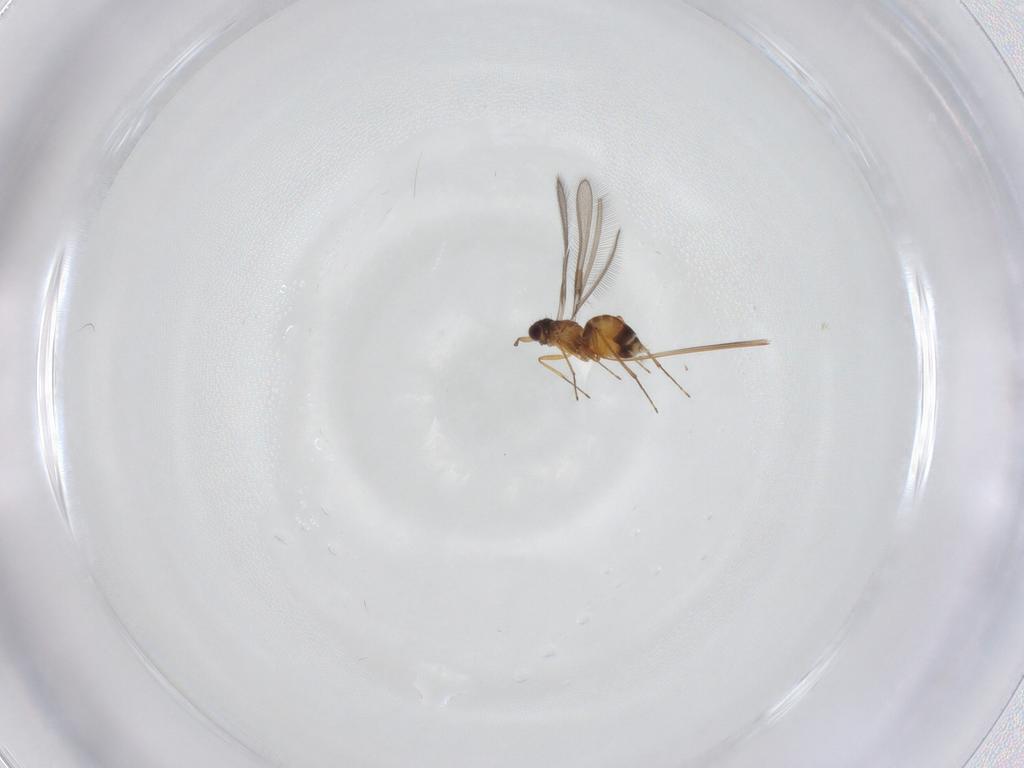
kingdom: Animalia
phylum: Arthropoda
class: Insecta
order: Hymenoptera
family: Mymaridae
